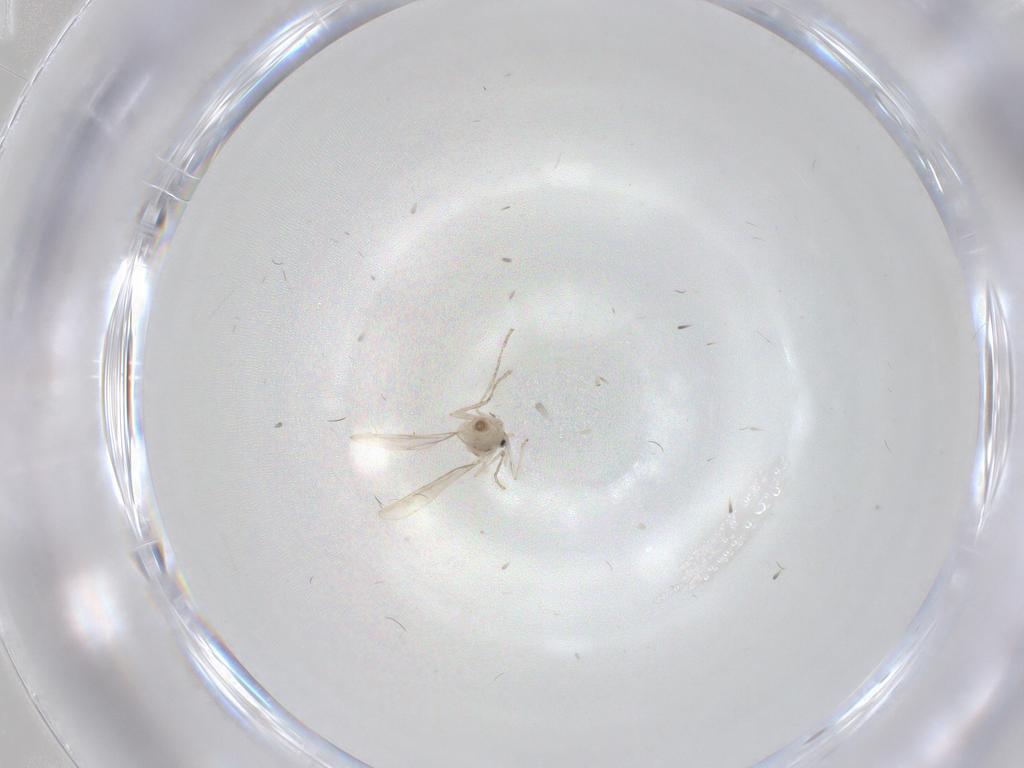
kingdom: Animalia
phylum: Arthropoda
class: Insecta
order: Diptera
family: Cecidomyiidae
